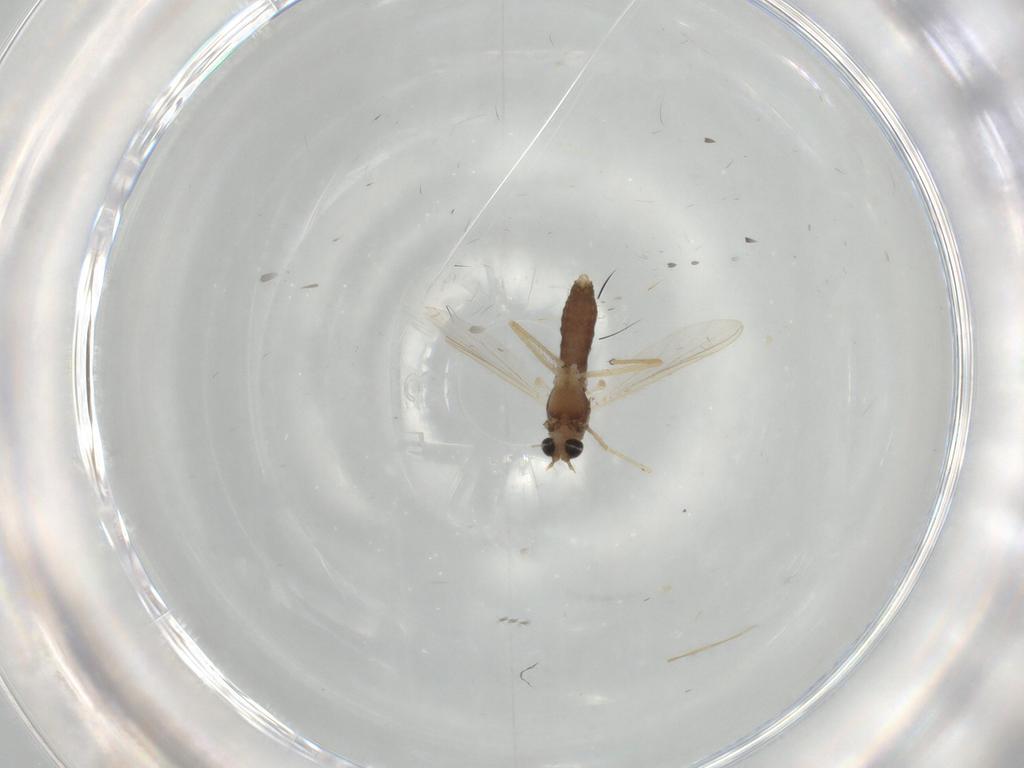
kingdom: Animalia
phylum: Arthropoda
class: Insecta
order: Diptera
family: Chironomidae
